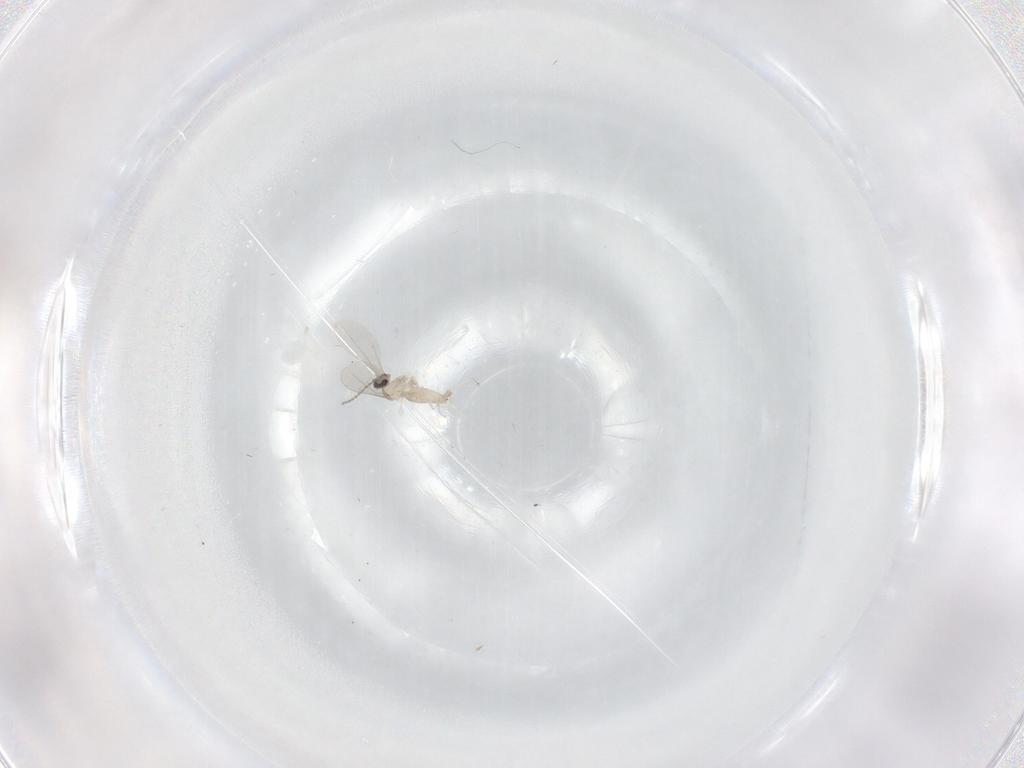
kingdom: Animalia
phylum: Arthropoda
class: Insecta
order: Diptera
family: Cecidomyiidae
